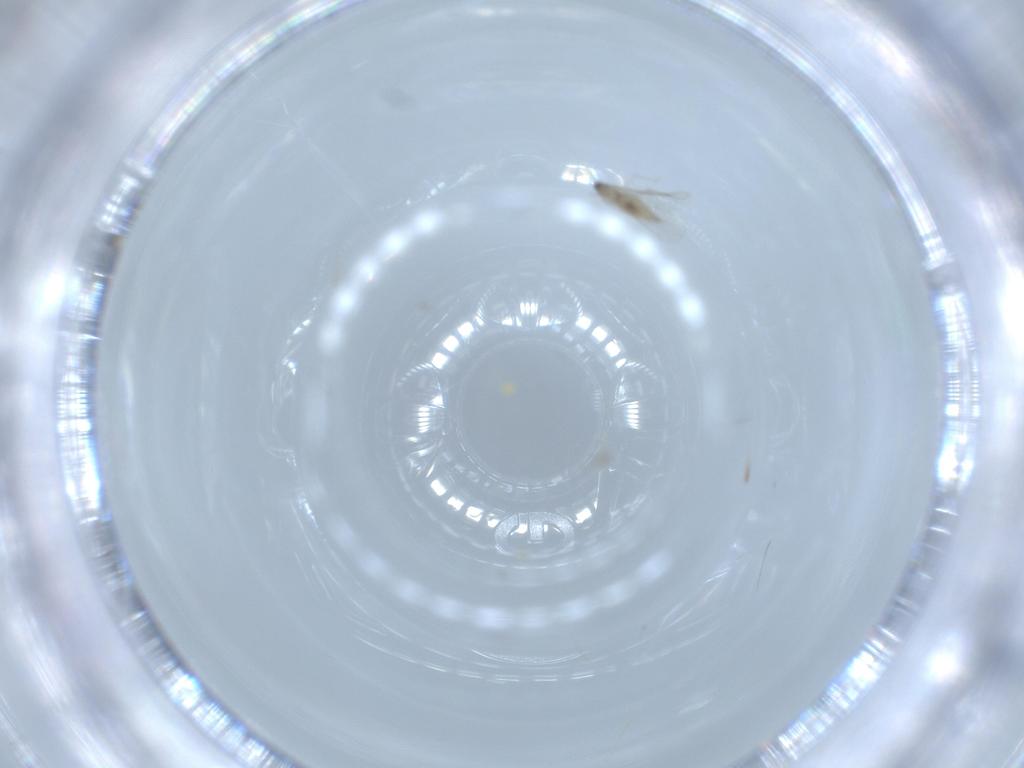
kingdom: Animalia
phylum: Arthropoda
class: Insecta
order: Diptera
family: Cecidomyiidae
